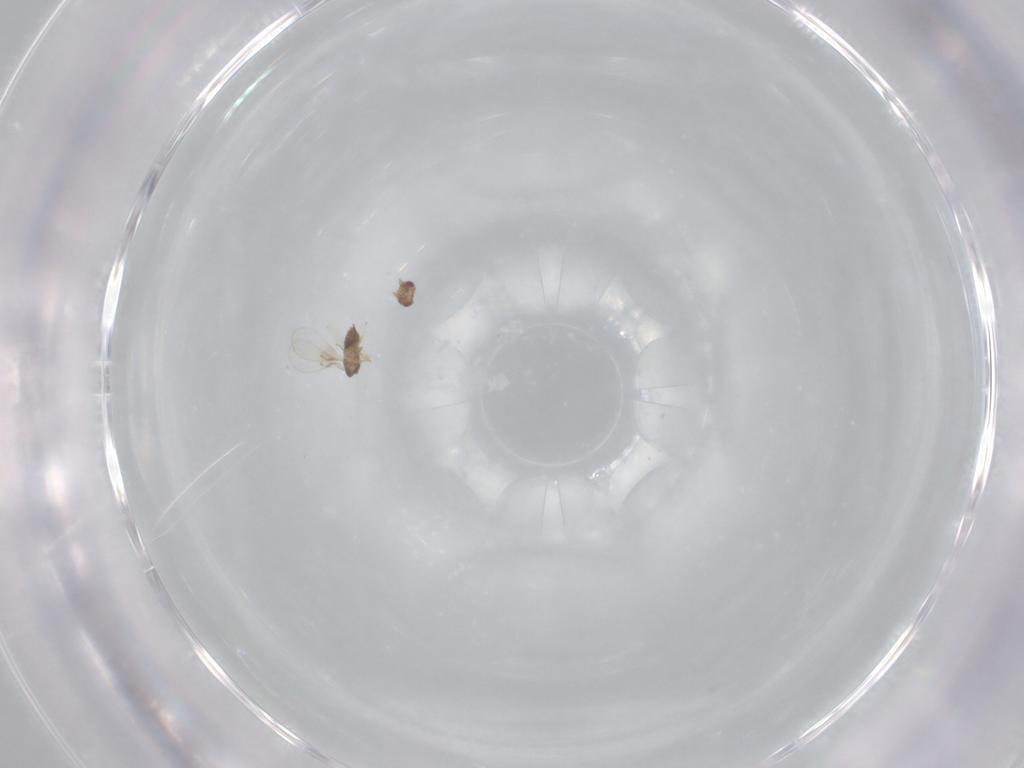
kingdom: Animalia
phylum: Arthropoda
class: Insecta
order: Hymenoptera
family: Trichogrammatidae
